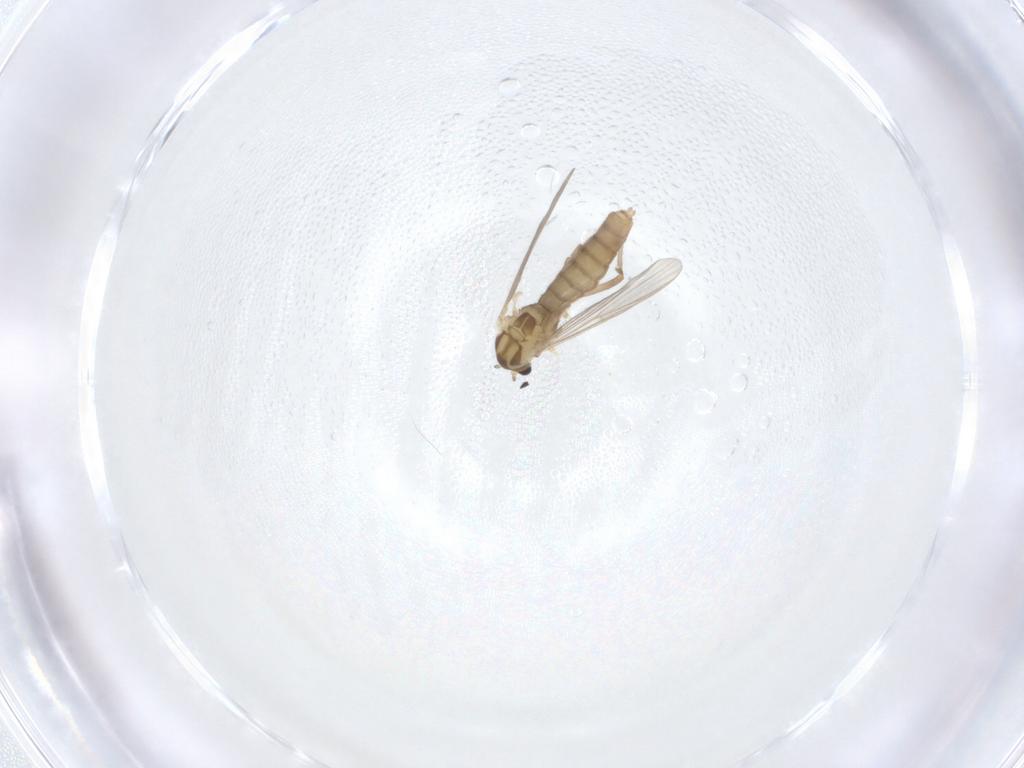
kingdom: Animalia
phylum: Arthropoda
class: Insecta
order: Diptera
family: Chironomidae
